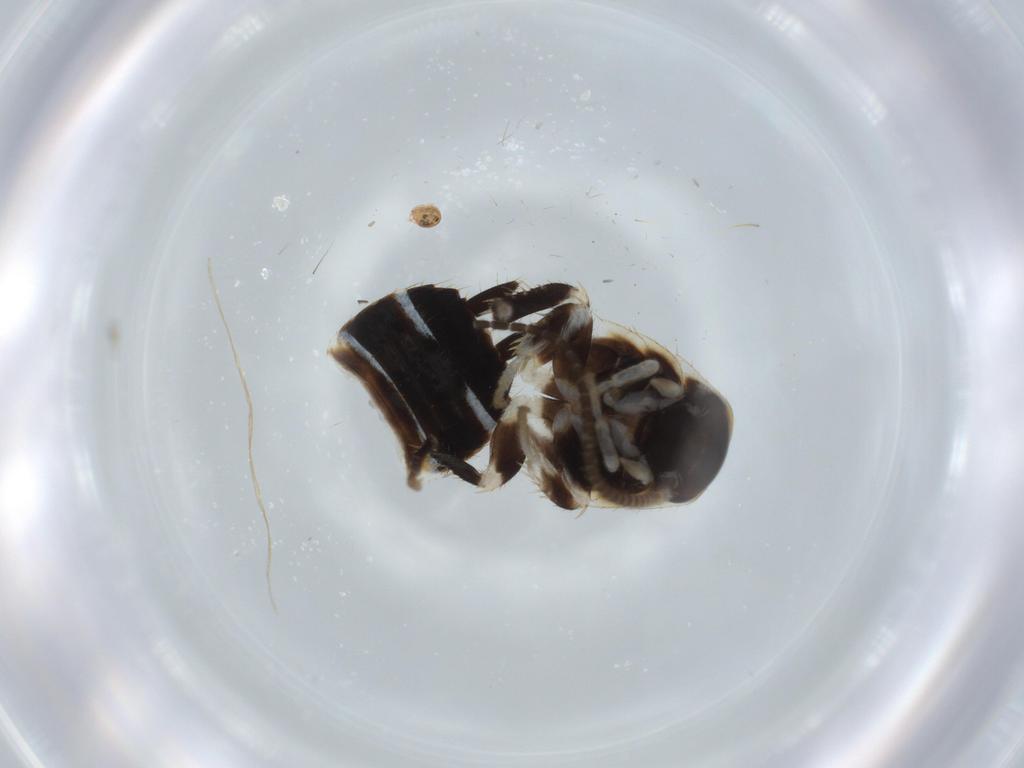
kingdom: Animalia
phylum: Arthropoda
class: Insecta
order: Blattodea
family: Ectobiidae
